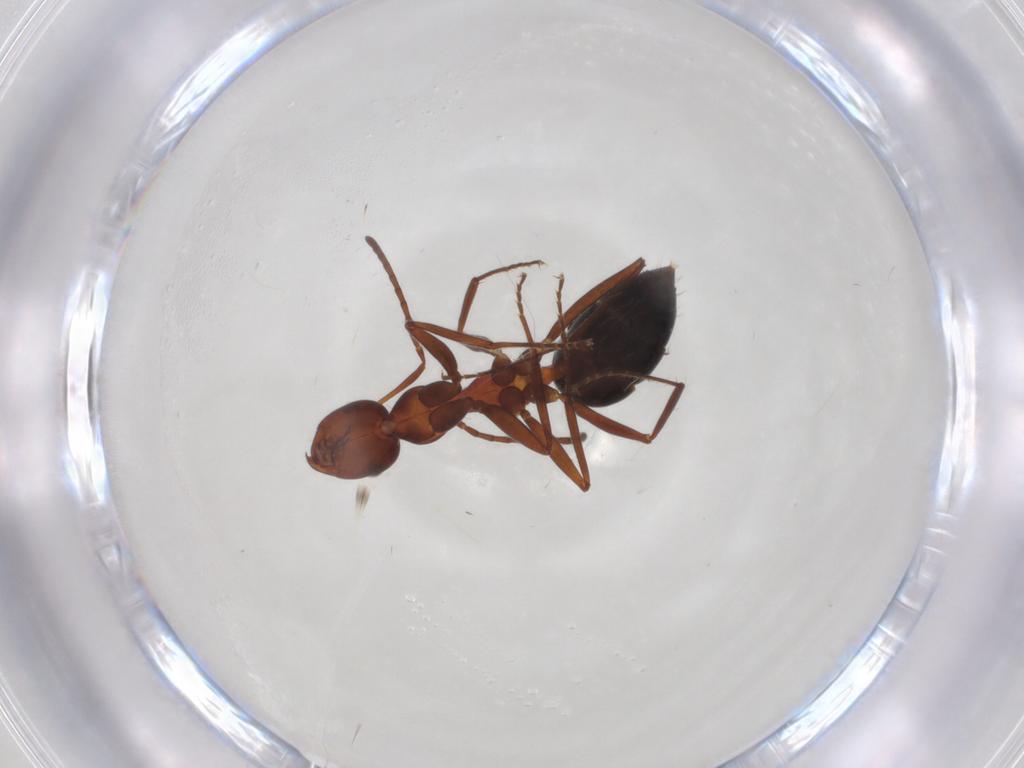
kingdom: Animalia
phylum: Arthropoda
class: Insecta
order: Hymenoptera
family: Formicidae
